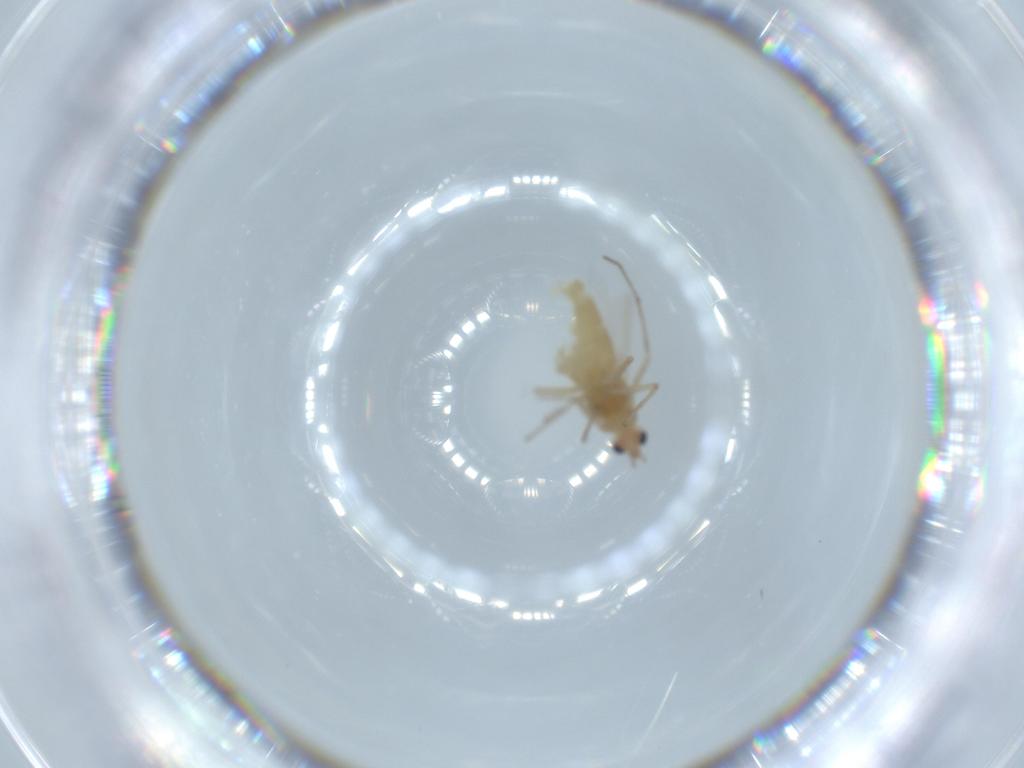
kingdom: Animalia
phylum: Arthropoda
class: Insecta
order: Diptera
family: Chironomidae
